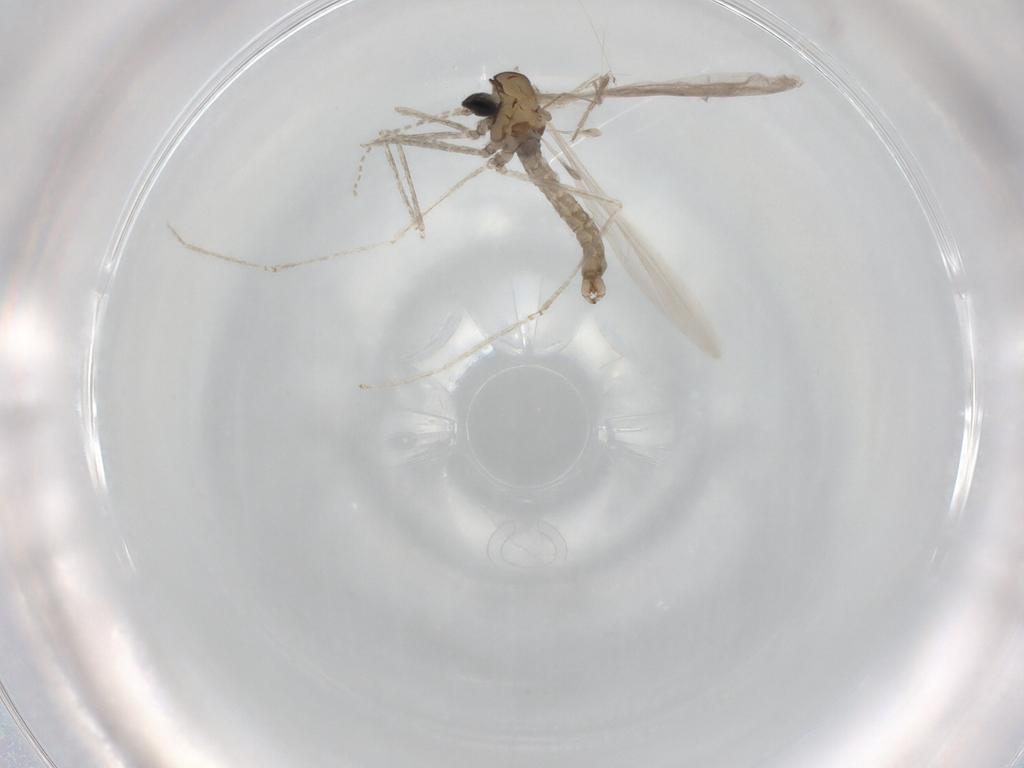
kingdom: Animalia
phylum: Arthropoda
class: Insecta
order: Diptera
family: Cecidomyiidae
